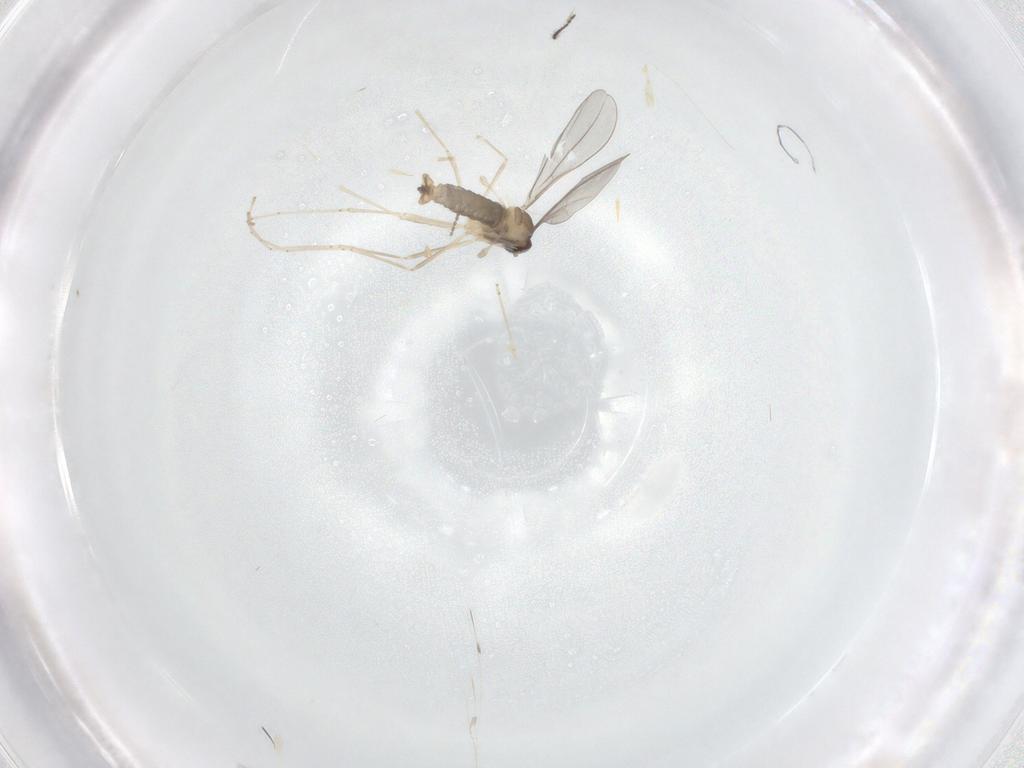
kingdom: Animalia
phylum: Arthropoda
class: Insecta
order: Diptera
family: Cecidomyiidae
